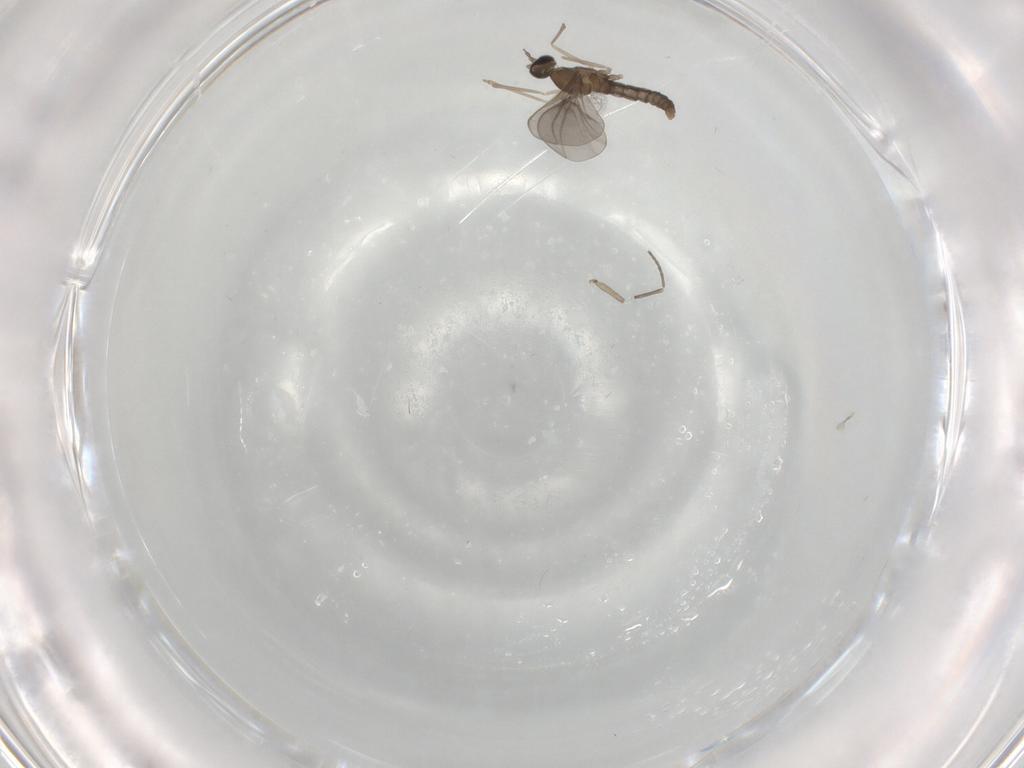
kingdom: Animalia
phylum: Arthropoda
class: Insecta
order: Diptera
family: Cecidomyiidae
